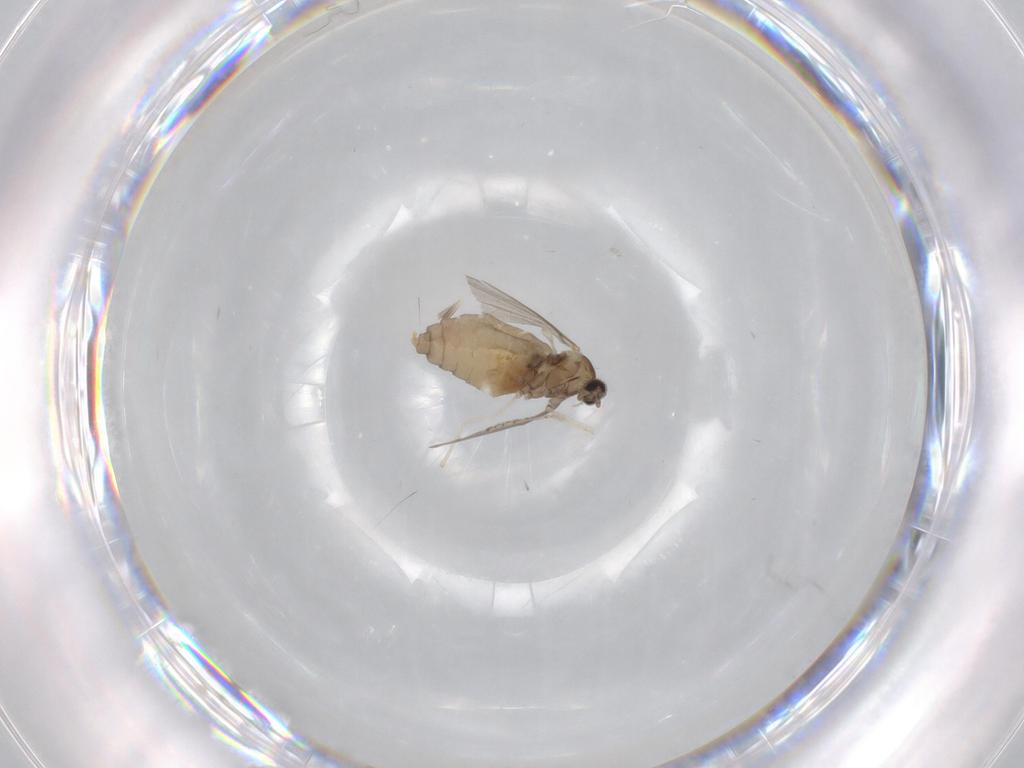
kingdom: Animalia
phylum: Arthropoda
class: Insecta
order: Diptera
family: Cecidomyiidae
